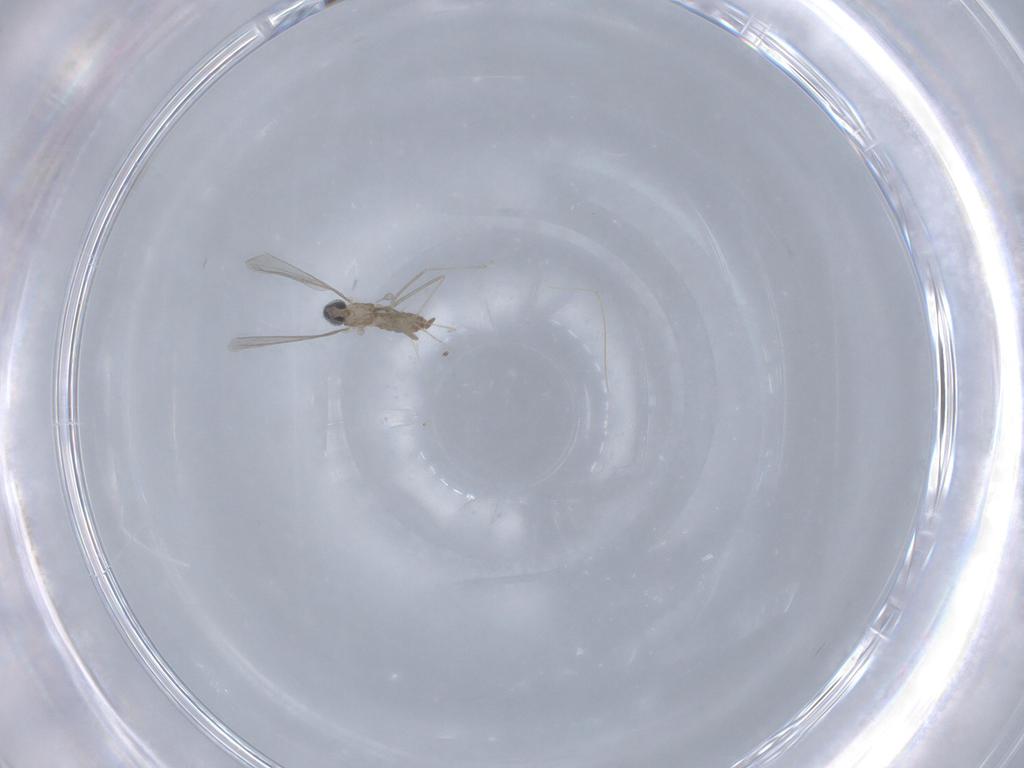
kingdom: Animalia
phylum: Arthropoda
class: Insecta
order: Diptera
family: Cecidomyiidae
